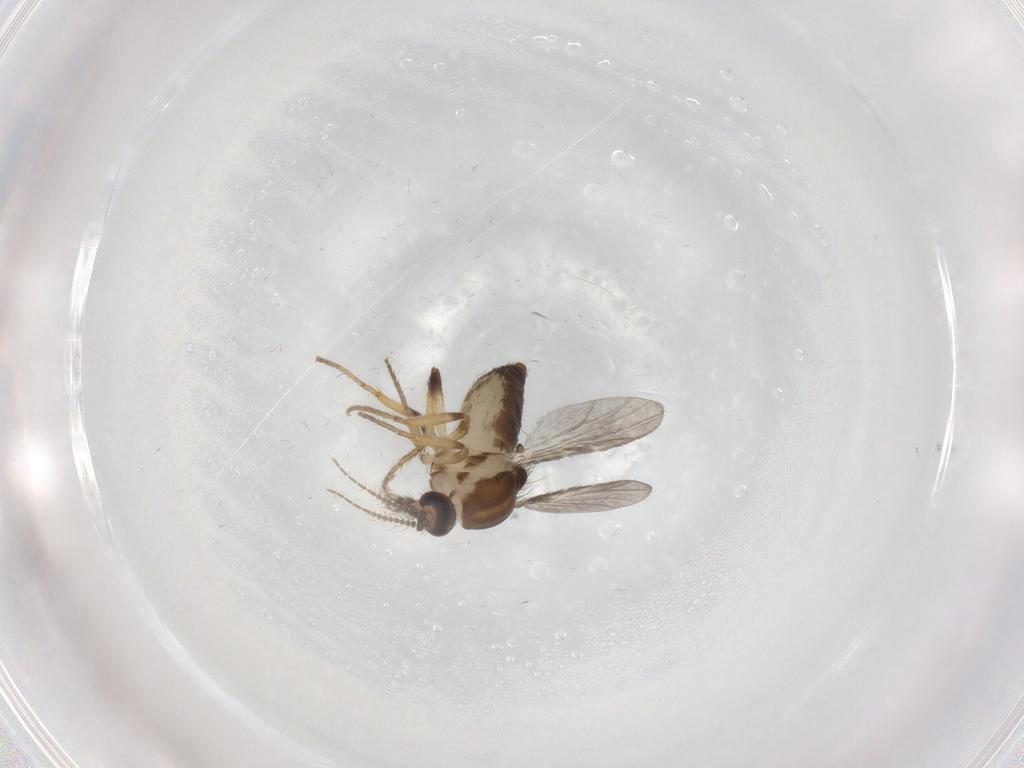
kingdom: Animalia
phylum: Arthropoda
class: Insecta
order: Diptera
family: Ceratopogonidae
